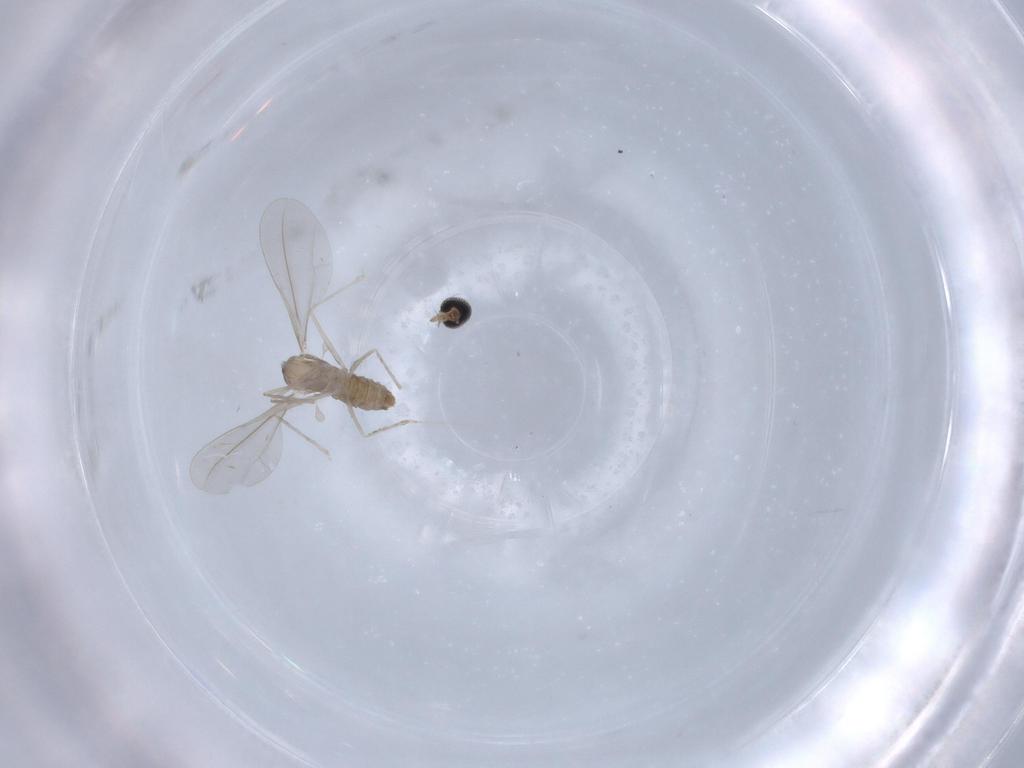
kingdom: Animalia
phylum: Arthropoda
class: Insecta
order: Diptera
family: Cecidomyiidae
